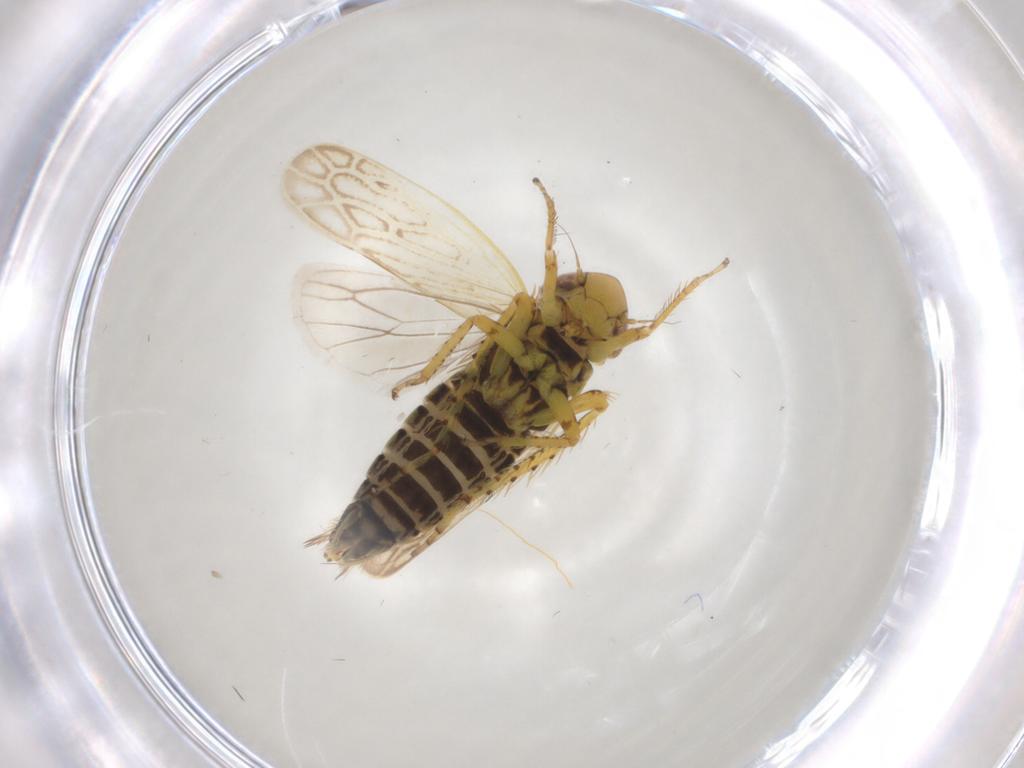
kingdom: Animalia
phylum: Arthropoda
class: Insecta
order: Hemiptera
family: Cicadellidae
